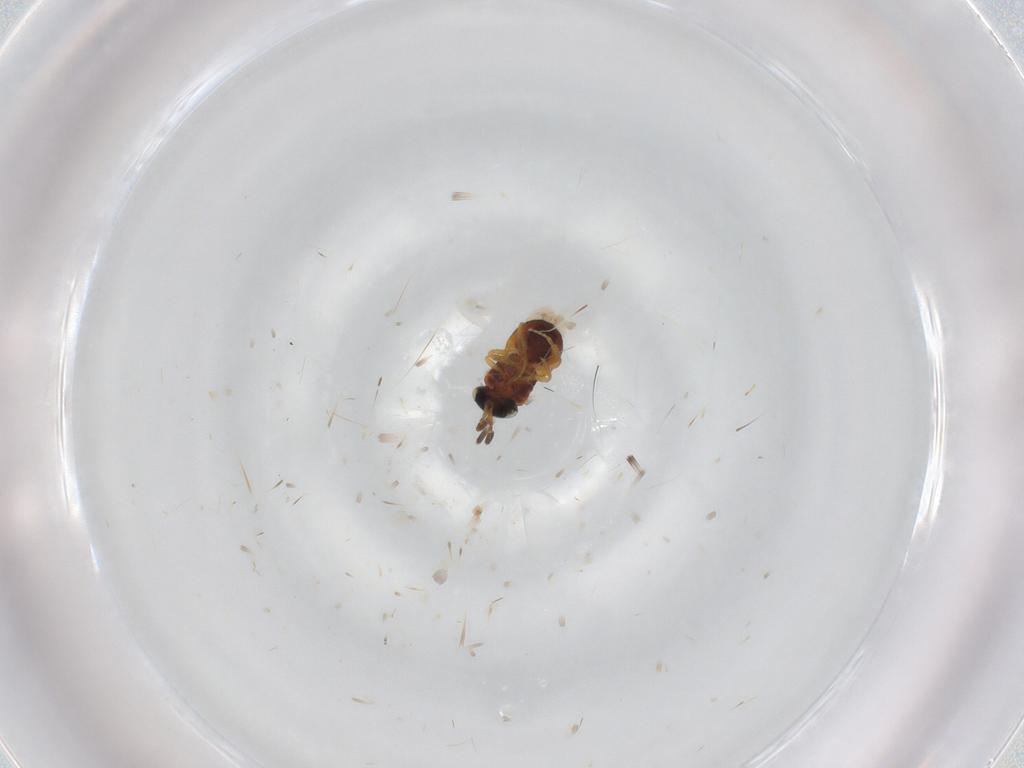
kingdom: Animalia
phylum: Arthropoda
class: Insecta
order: Hymenoptera
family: Scelionidae
